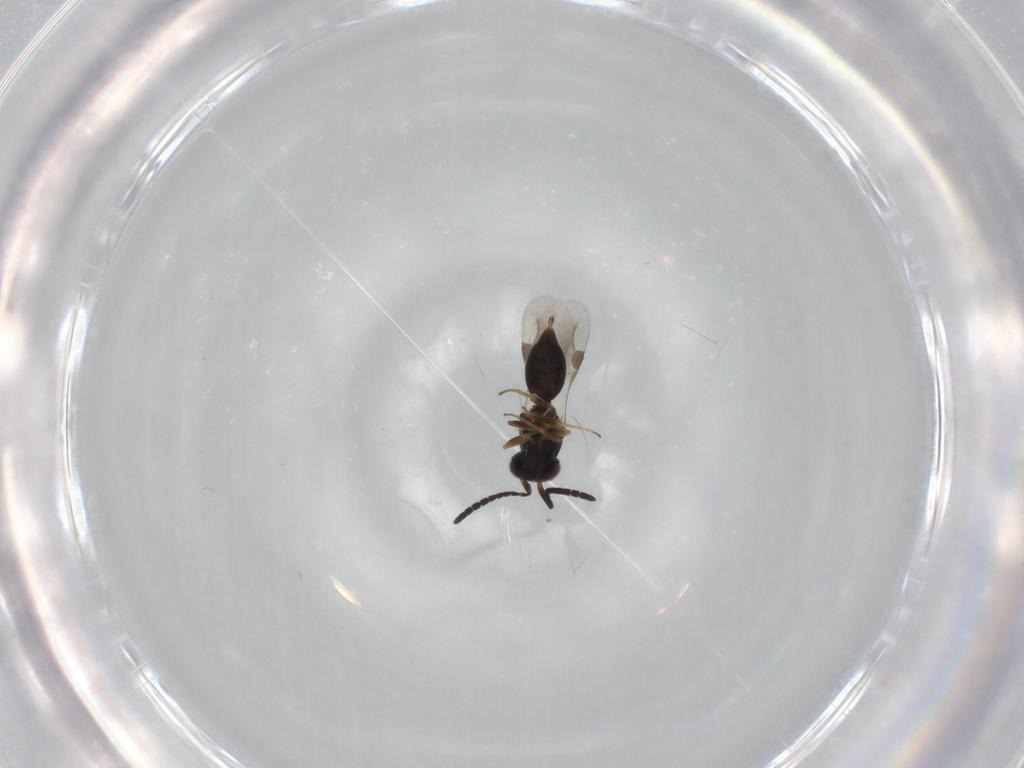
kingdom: Animalia
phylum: Arthropoda
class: Insecta
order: Hymenoptera
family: Megaspilidae
